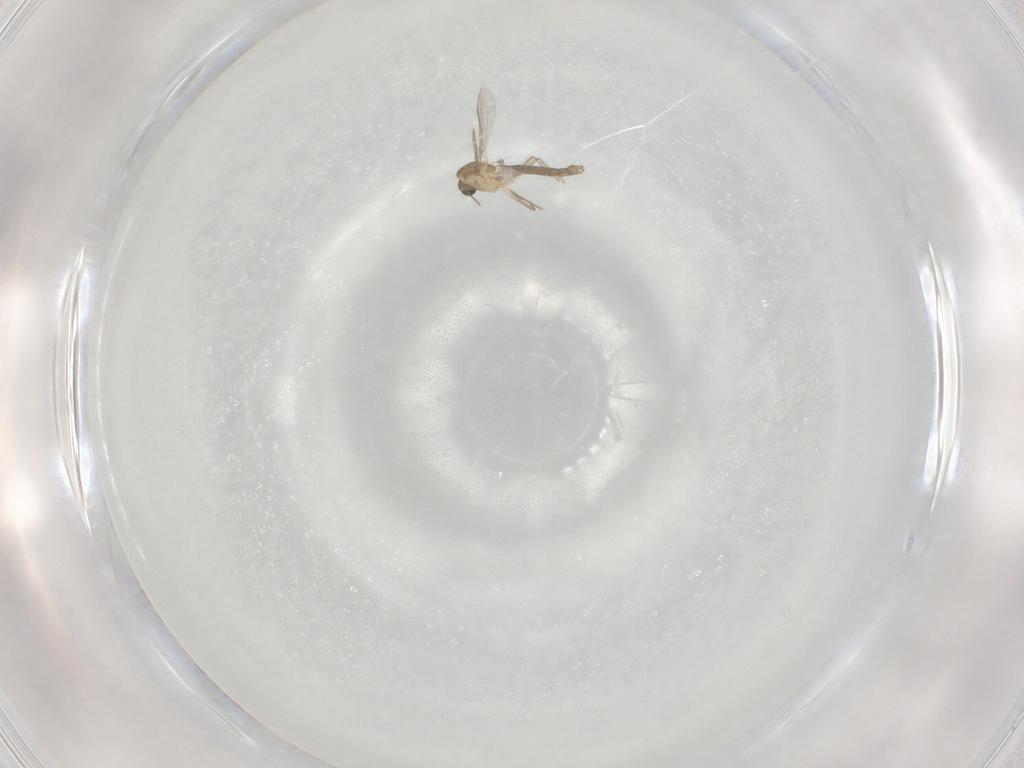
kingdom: Animalia
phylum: Arthropoda
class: Insecta
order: Diptera
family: Chironomidae
